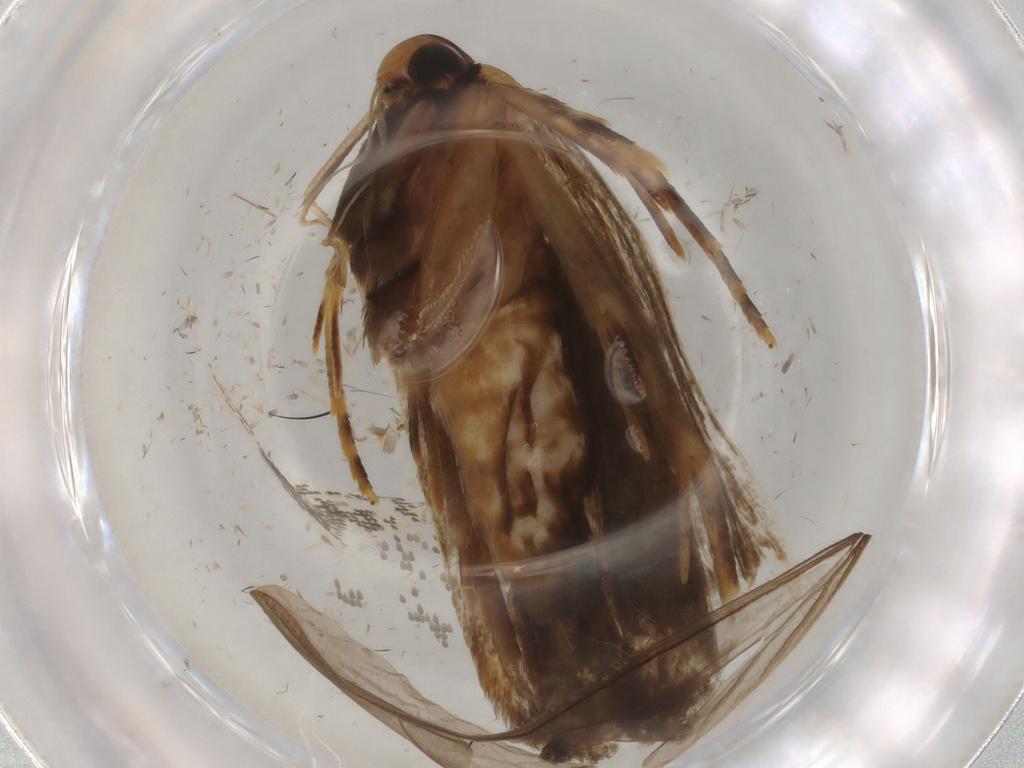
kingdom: Animalia
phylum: Arthropoda
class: Insecta
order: Lepidoptera
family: Gelechiidae
